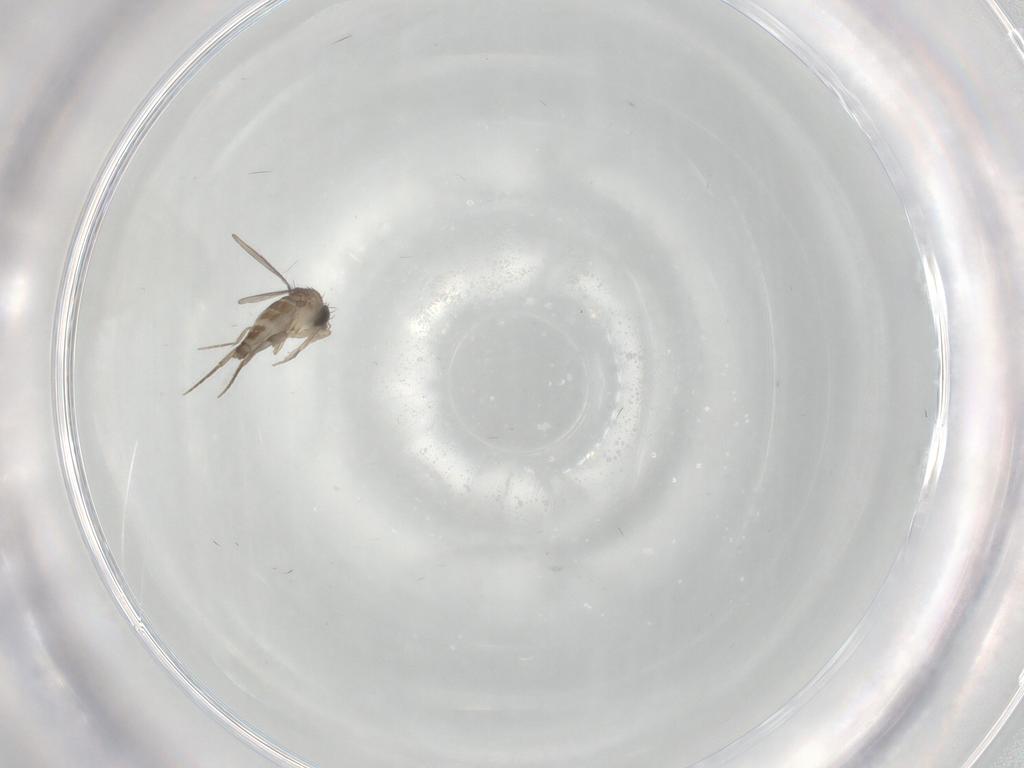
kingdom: Animalia
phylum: Arthropoda
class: Insecta
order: Diptera
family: Phoridae
